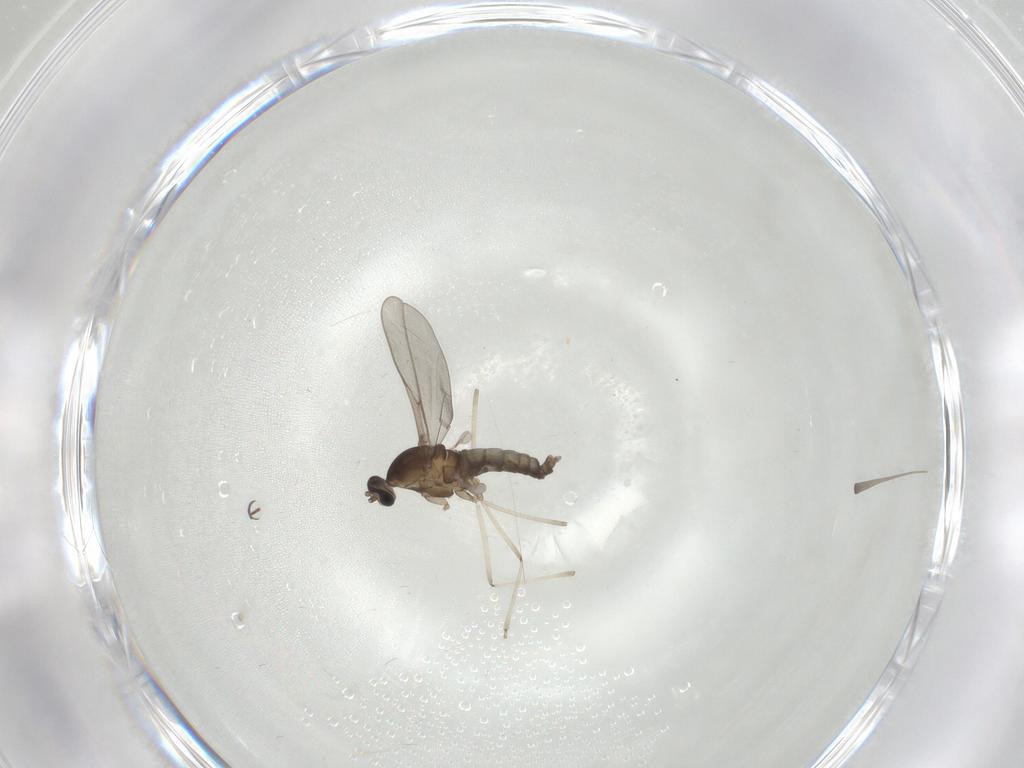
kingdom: Animalia
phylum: Arthropoda
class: Insecta
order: Diptera
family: Cecidomyiidae
